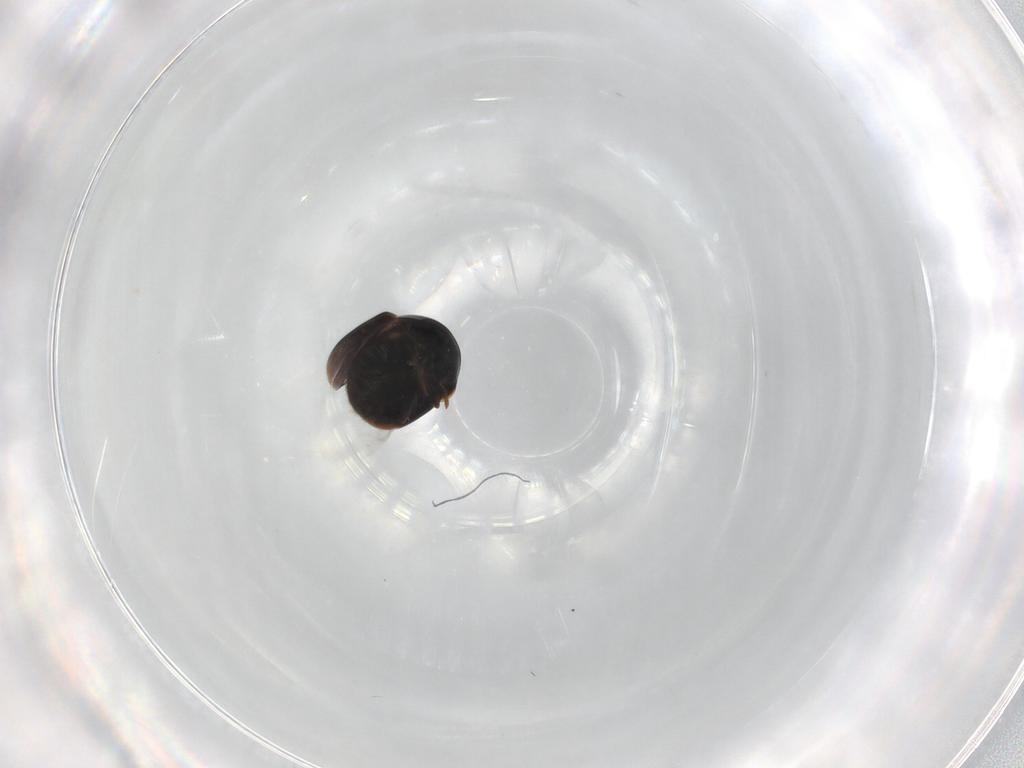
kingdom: Animalia
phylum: Arthropoda
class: Insecta
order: Coleoptera
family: Cybocephalidae
